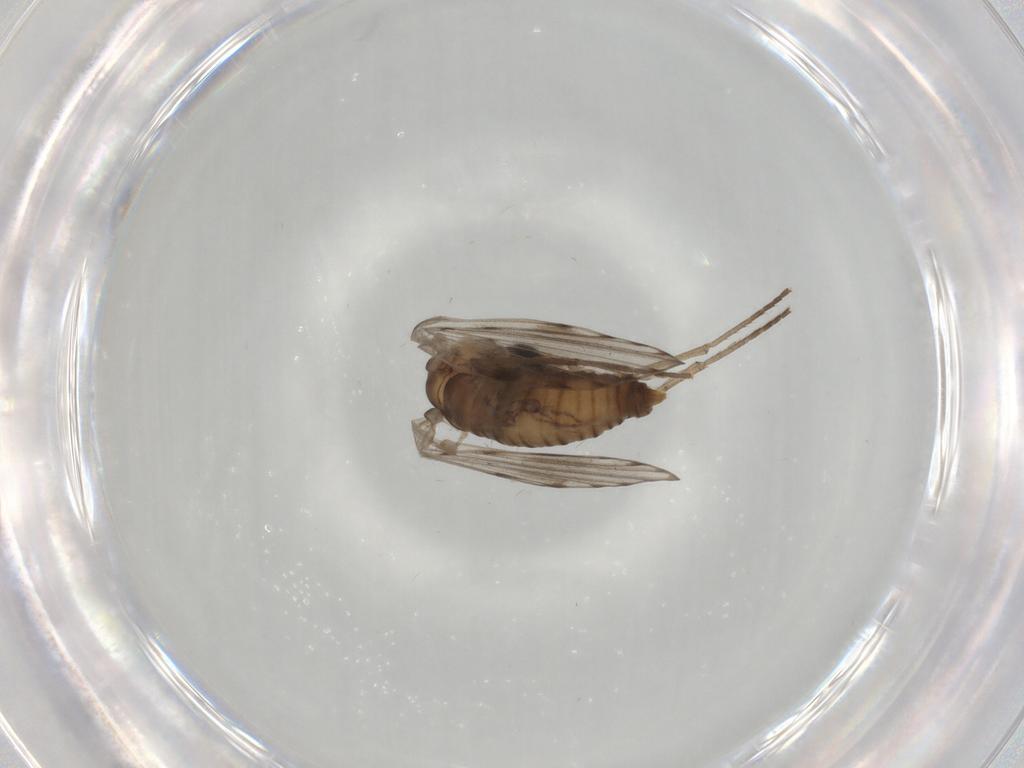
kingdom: Animalia
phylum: Arthropoda
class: Insecta
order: Diptera
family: Psychodidae
